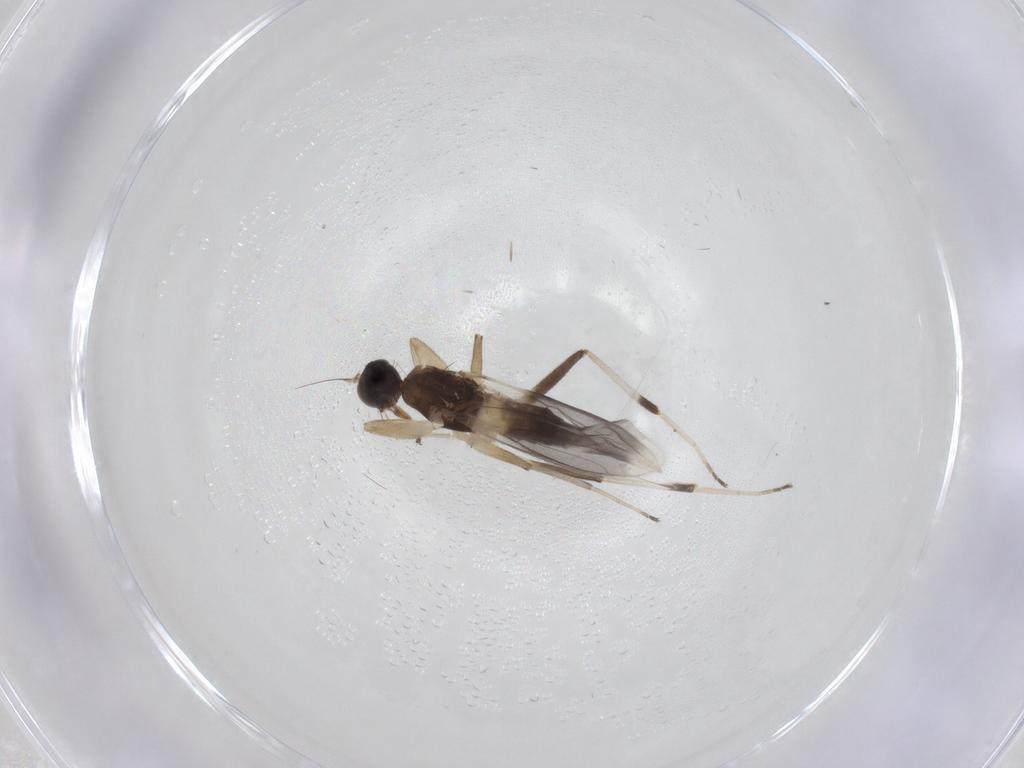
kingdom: Animalia
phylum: Arthropoda
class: Insecta
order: Diptera
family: Hybotidae
